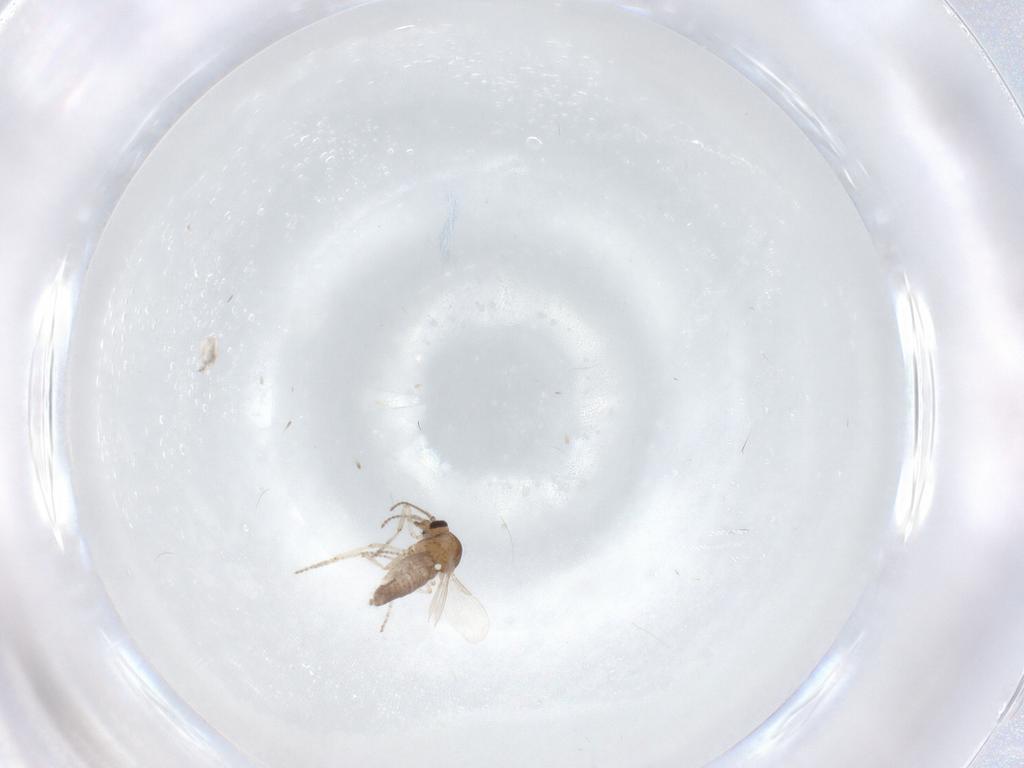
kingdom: Animalia
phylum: Arthropoda
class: Insecta
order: Diptera
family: Ceratopogonidae
